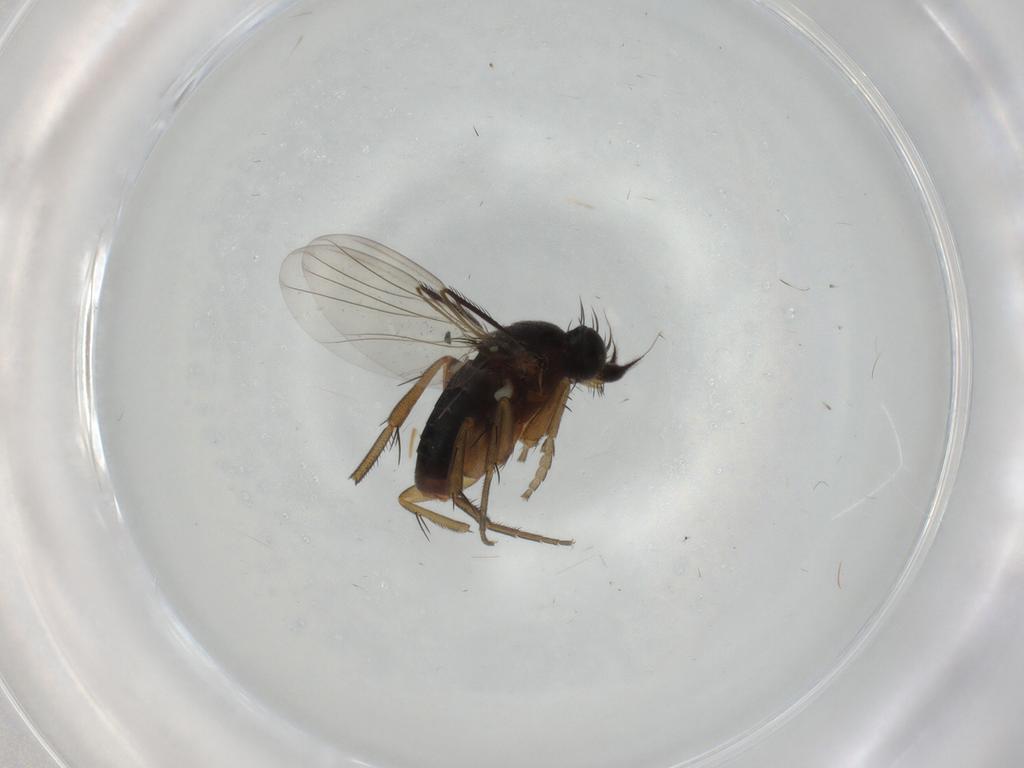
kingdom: Animalia
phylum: Arthropoda
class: Insecta
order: Diptera
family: Phoridae
